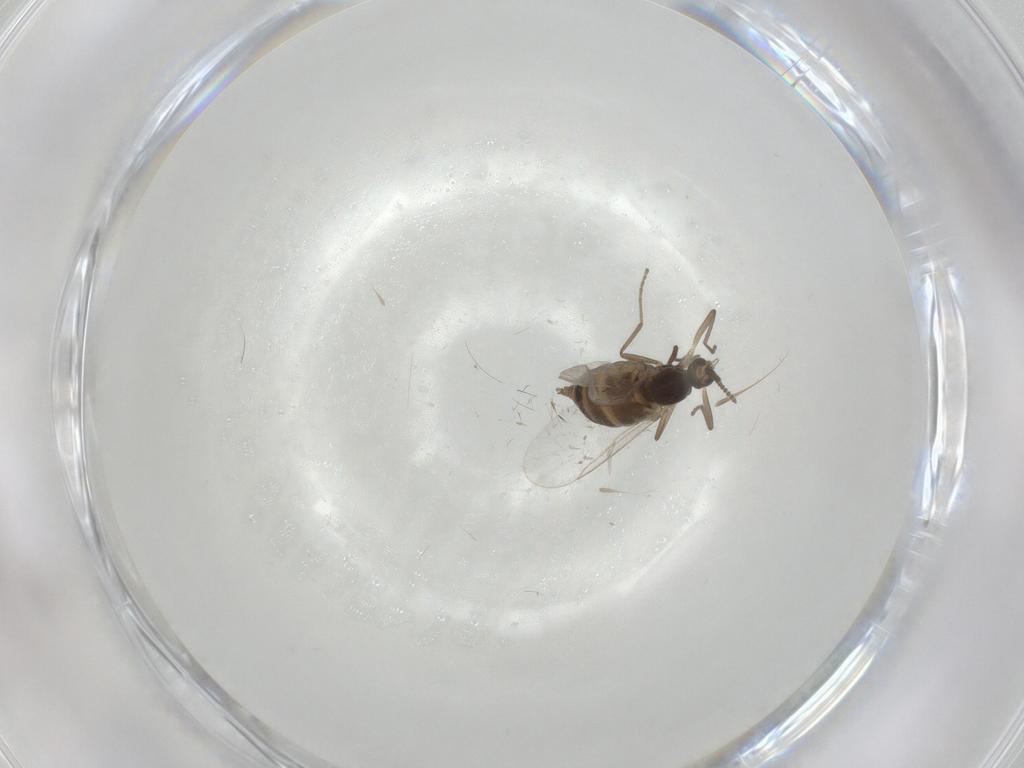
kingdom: Animalia
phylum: Arthropoda
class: Insecta
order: Diptera
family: Cecidomyiidae
